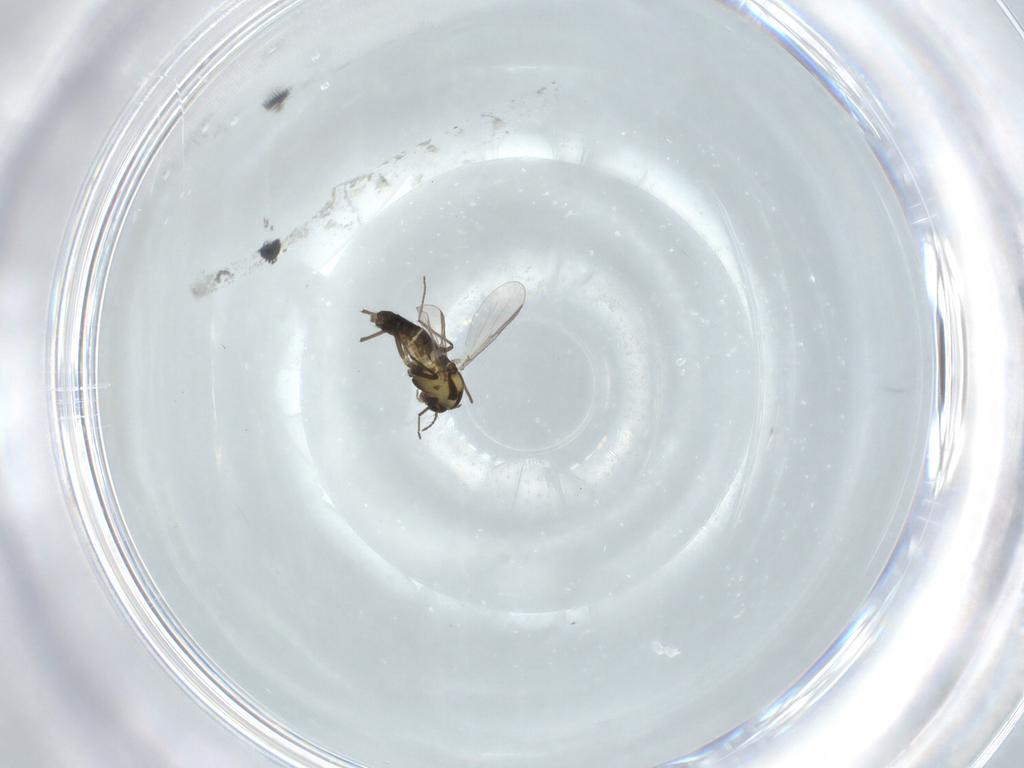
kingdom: Animalia
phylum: Arthropoda
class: Insecta
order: Diptera
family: Chironomidae
